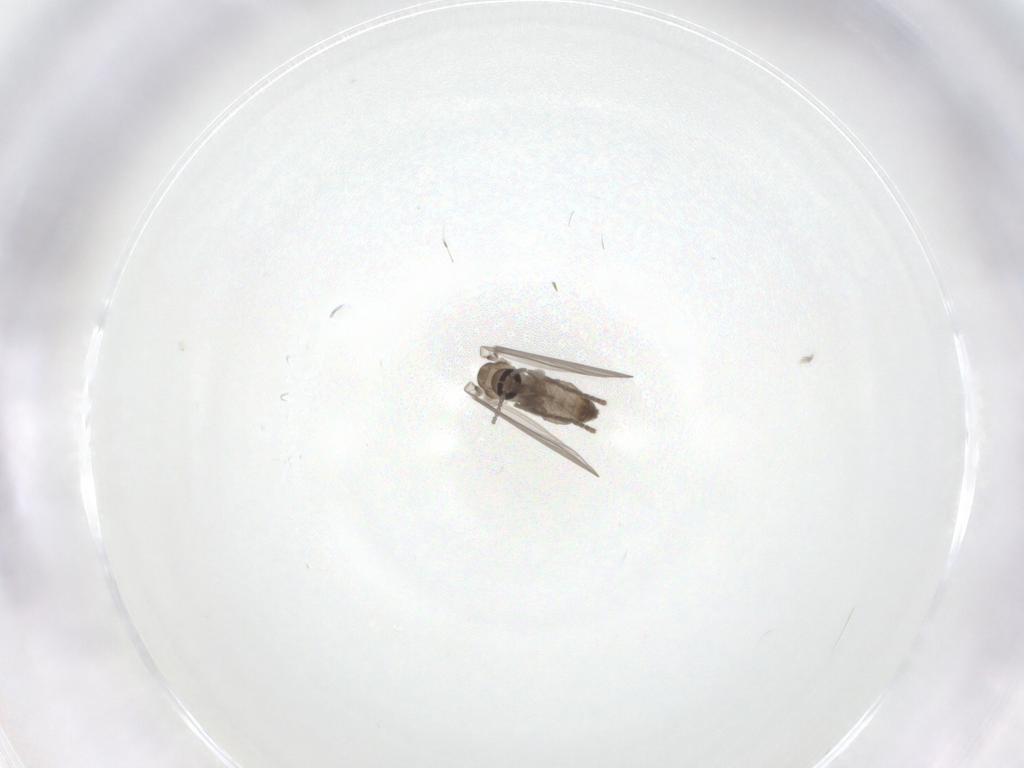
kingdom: Animalia
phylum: Arthropoda
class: Insecta
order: Diptera
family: Psychodidae
